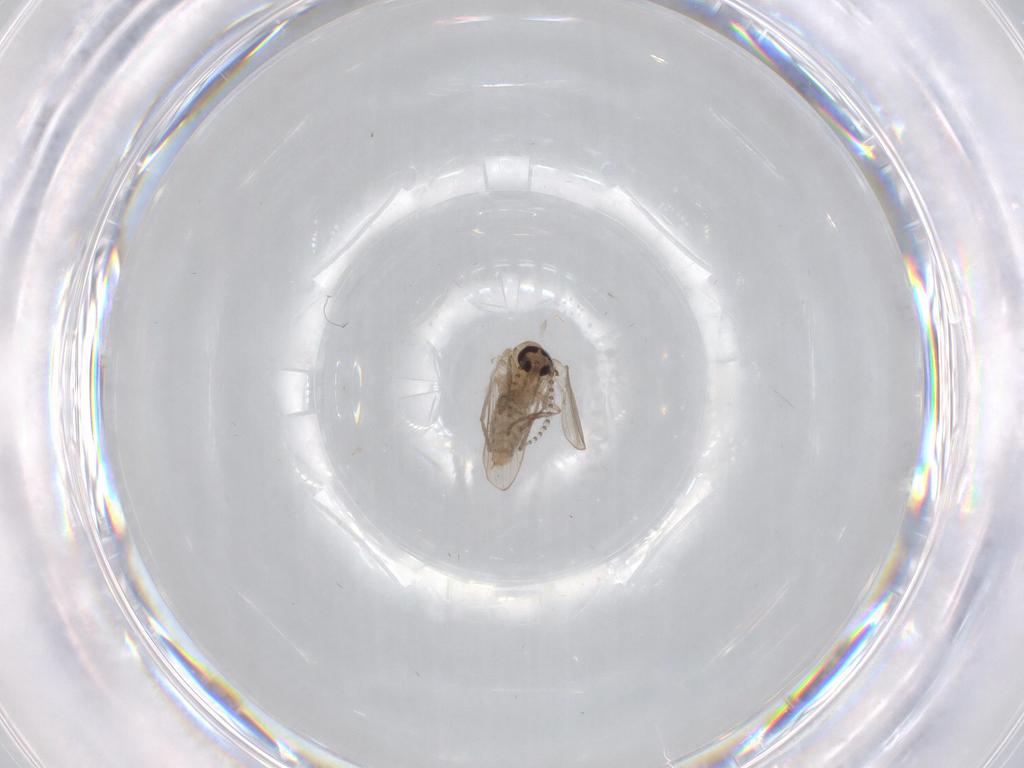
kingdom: Animalia
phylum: Arthropoda
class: Insecta
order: Diptera
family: Psychodidae
